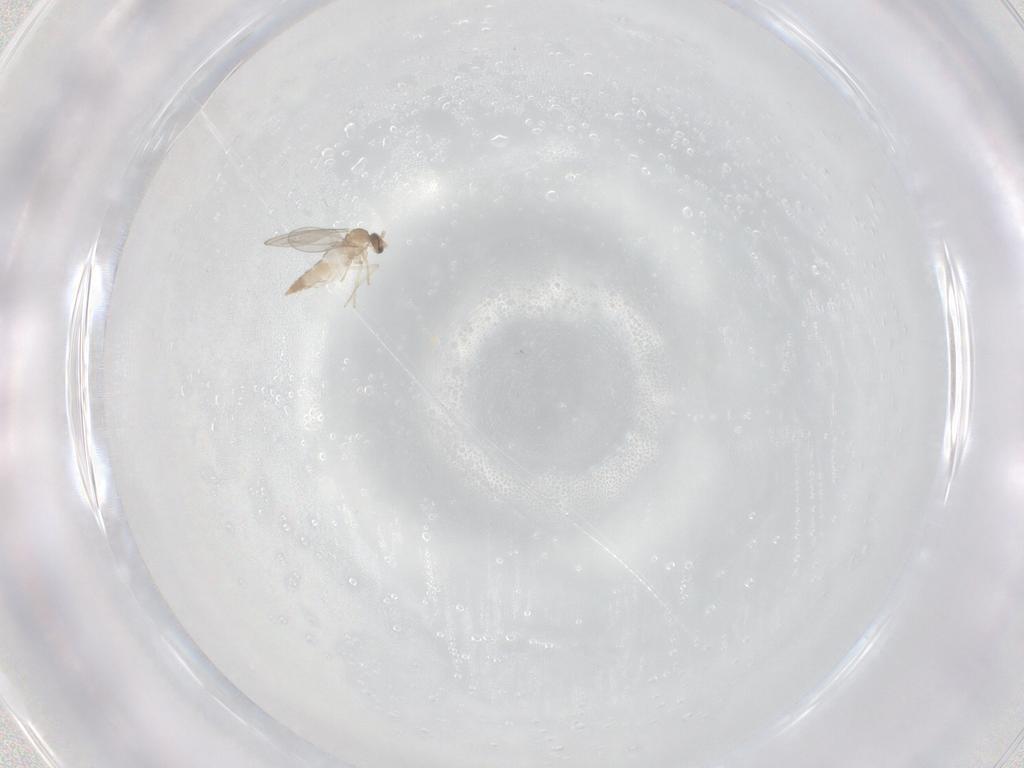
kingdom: Animalia
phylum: Arthropoda
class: Insecta
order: Diptera
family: Cecidomyiidae
